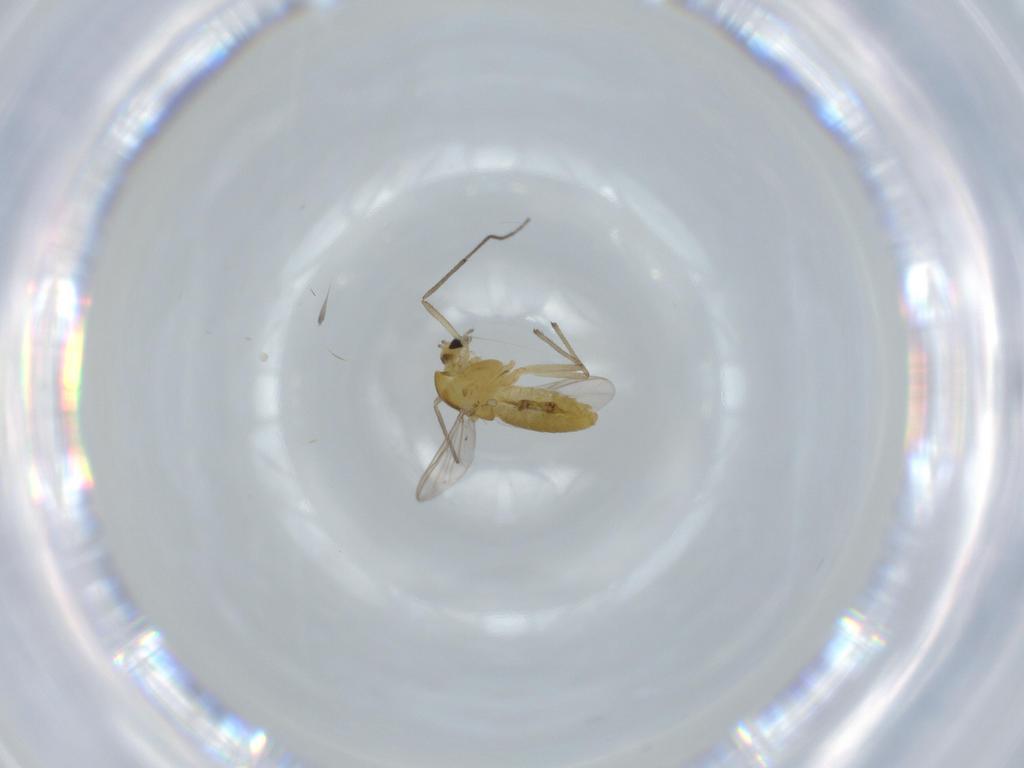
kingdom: Animalia
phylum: Arthropoda
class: Insecta
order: Diptera
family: Chironomidae
